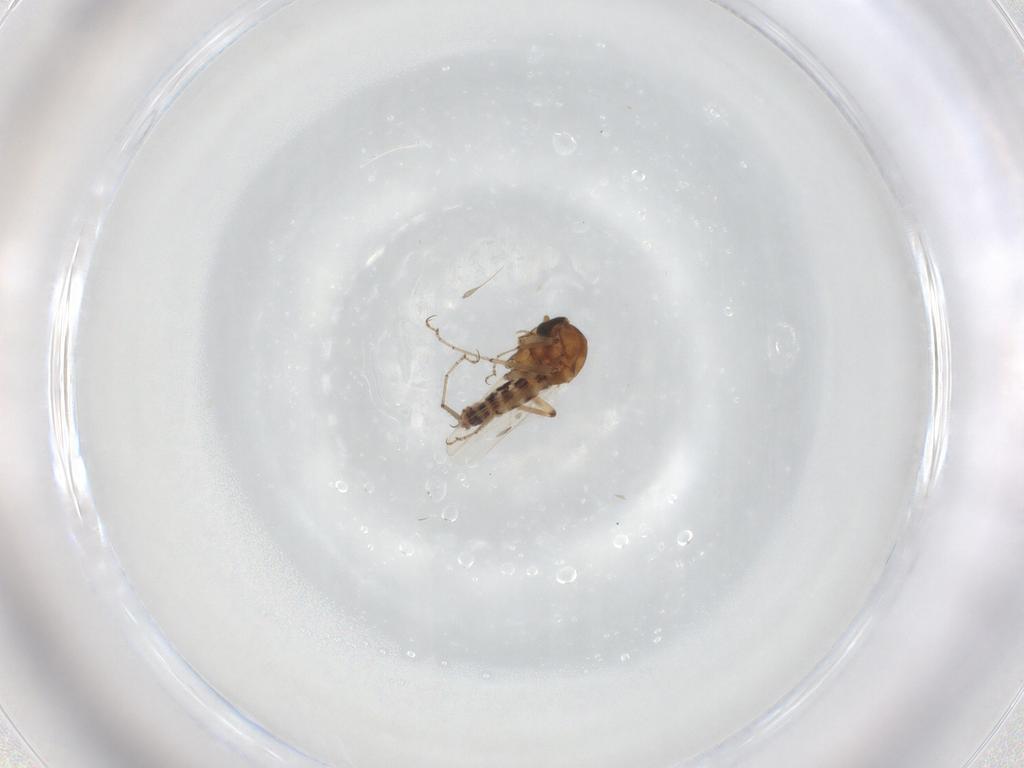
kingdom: Animalia
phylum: Arthropoda
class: Insecta
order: Diptera
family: Ceratopogonidae
